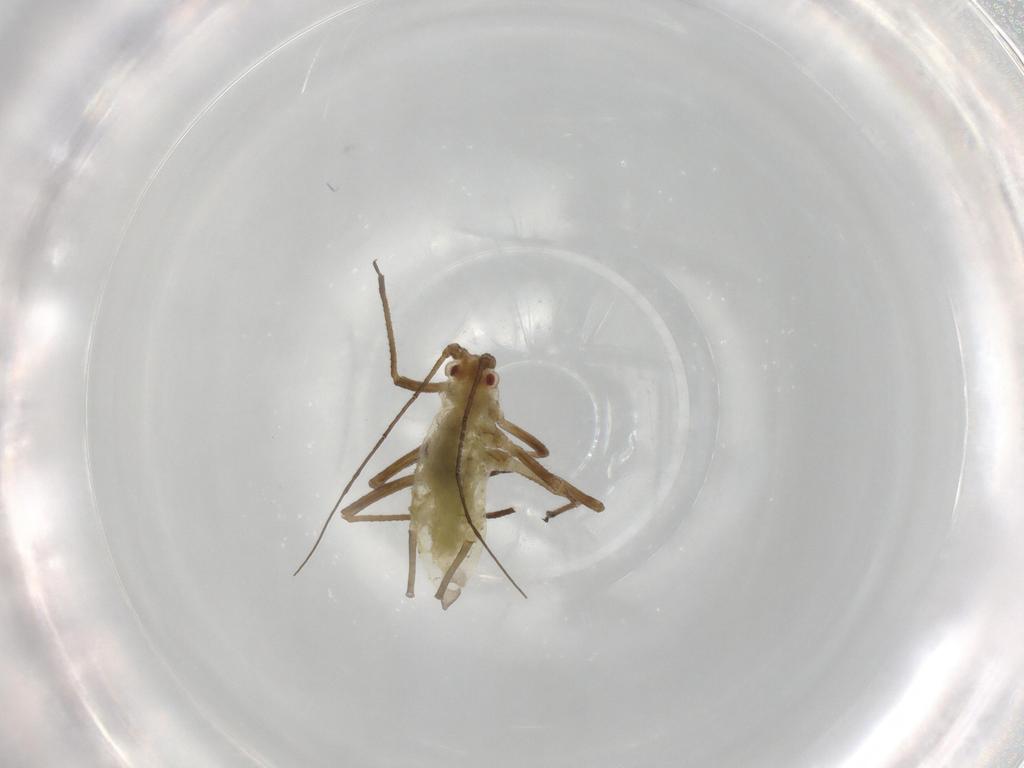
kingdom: Animalia
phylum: Arthropoda
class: Insecta
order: Hemiptera
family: Aphididae
